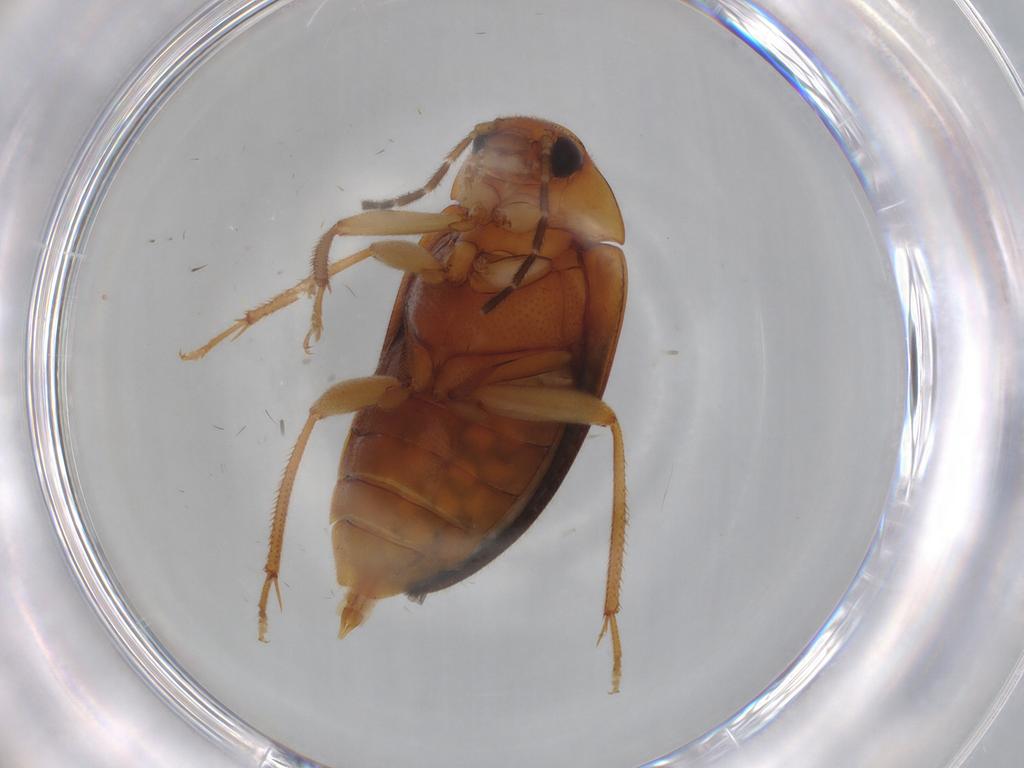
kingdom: Animalia
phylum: Arthropoda
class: Insecta
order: Coleoptera
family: Ptilodactylidae
